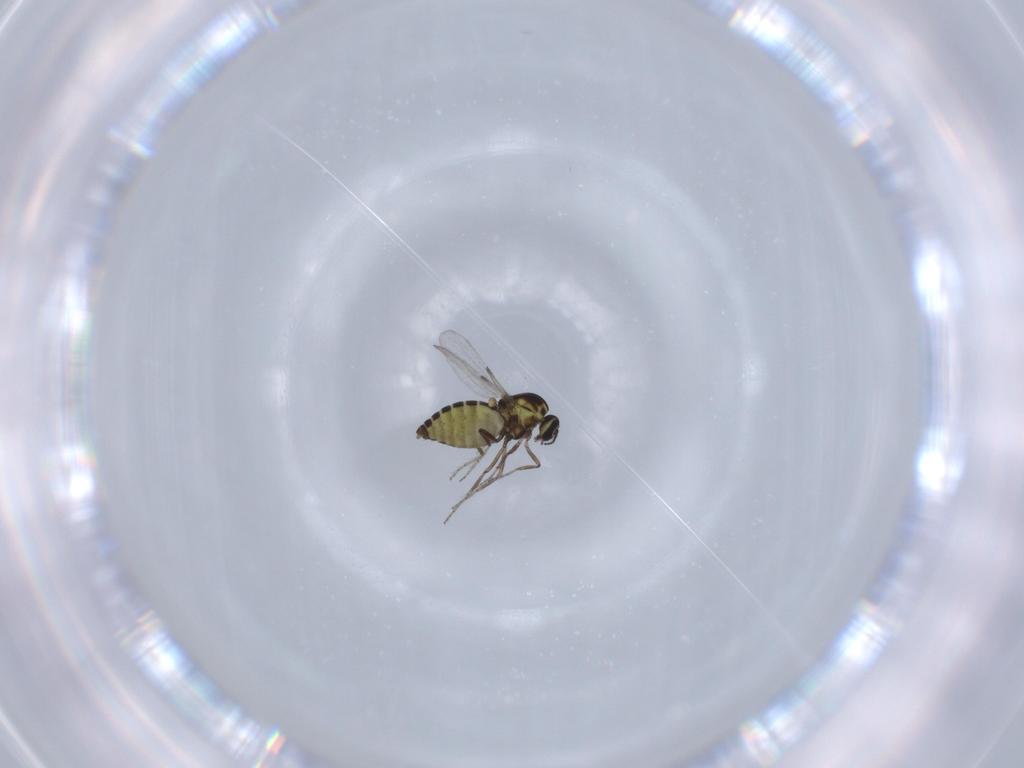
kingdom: Animalia
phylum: Arthropoda
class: Insecta
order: Diptera
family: Ceratopogonidae
